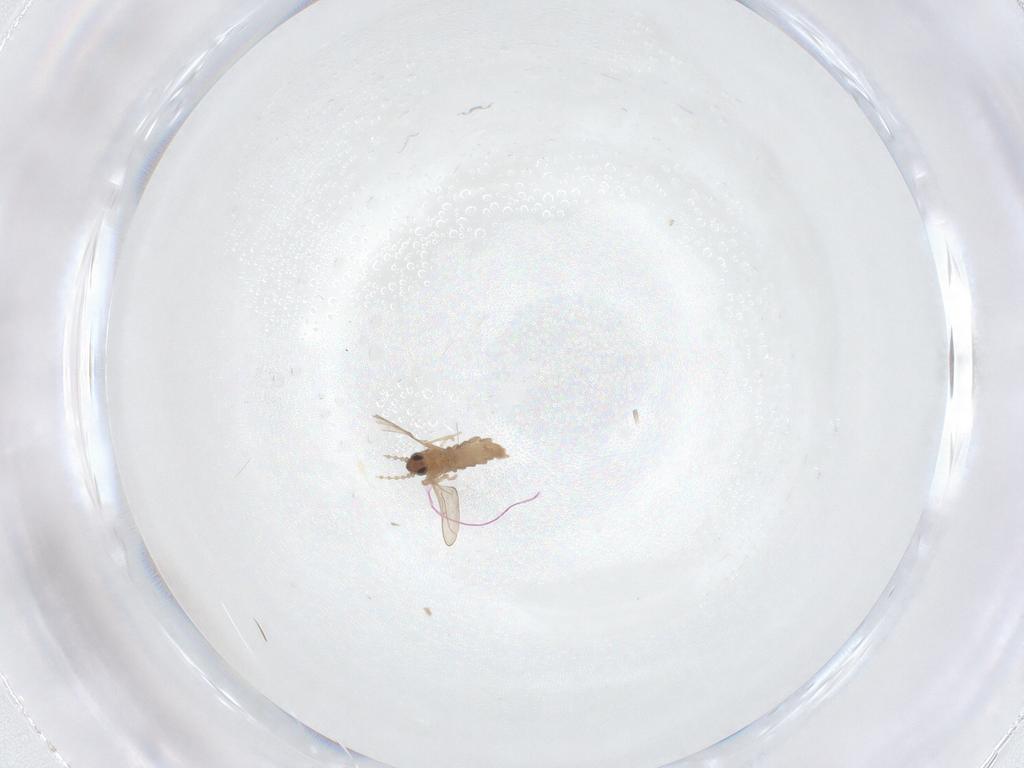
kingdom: Animalia
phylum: Arthropoda
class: Insecta
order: Diptera
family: Cecidomyiidae
